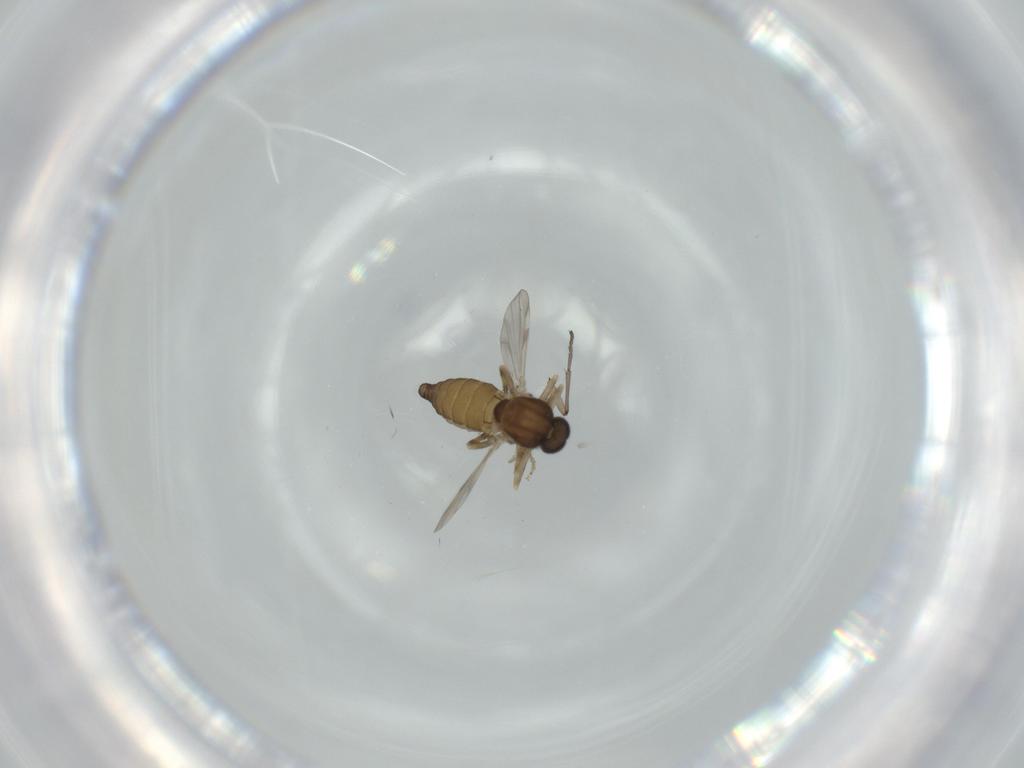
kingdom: Animalia
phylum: Arthropoda
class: Insecta
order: Diptera
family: Ceratopogonidae
